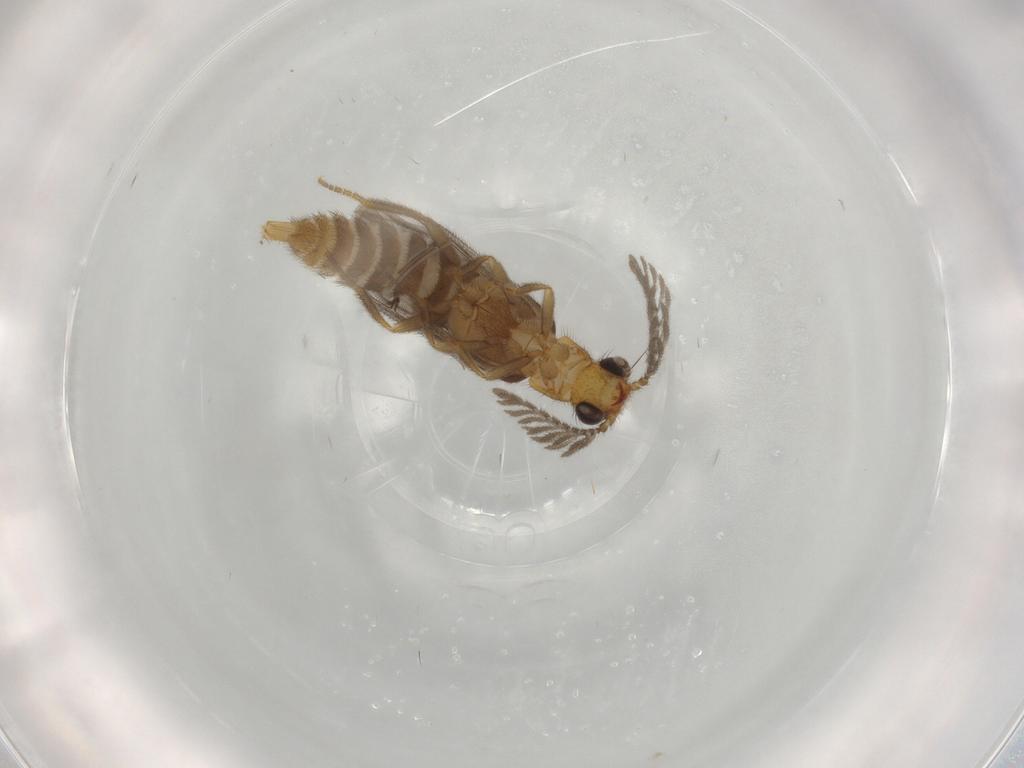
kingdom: Animalia
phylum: Arthropoda
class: Insecta
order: Coleoptera
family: Phengodidae
